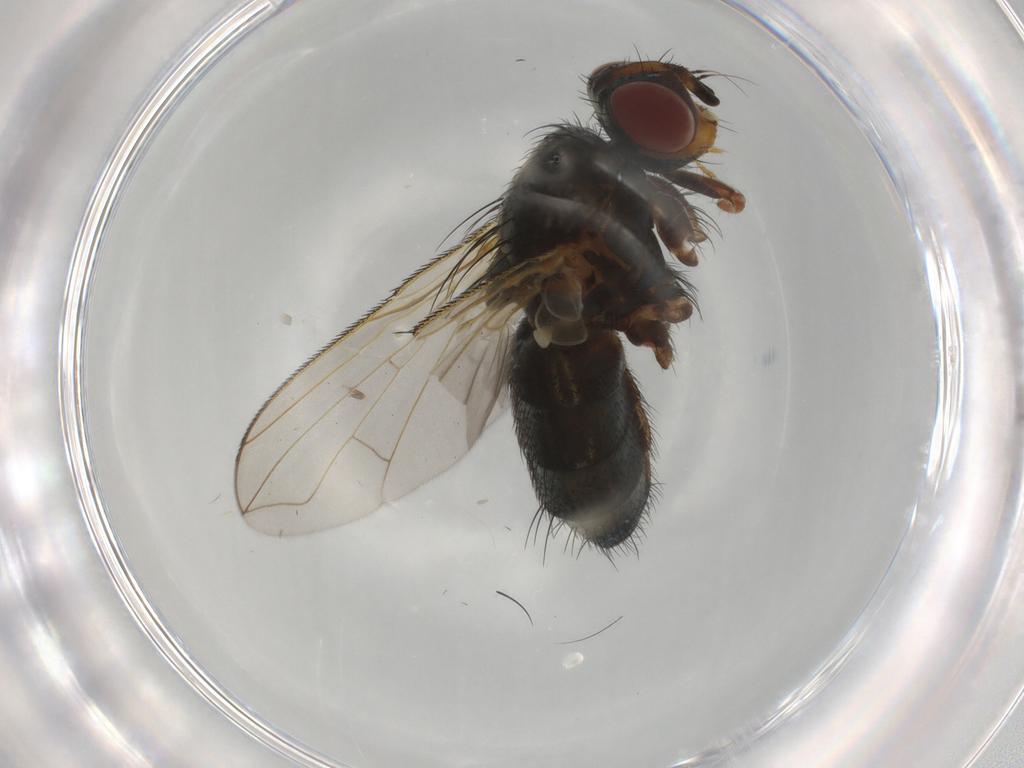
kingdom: Animalia
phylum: Arthropoda
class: Insecta
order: Diptera
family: Calliphoridae
